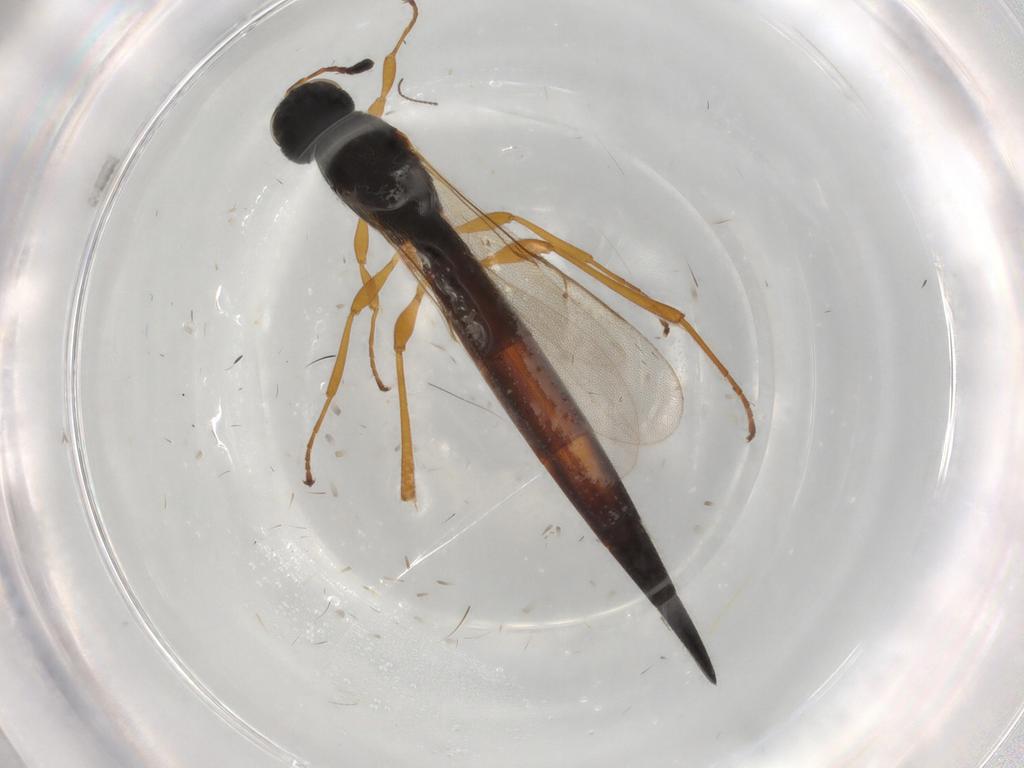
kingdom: Animalia
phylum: Arthropoda
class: Insecta
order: Hymenoptera
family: Scelionidae
